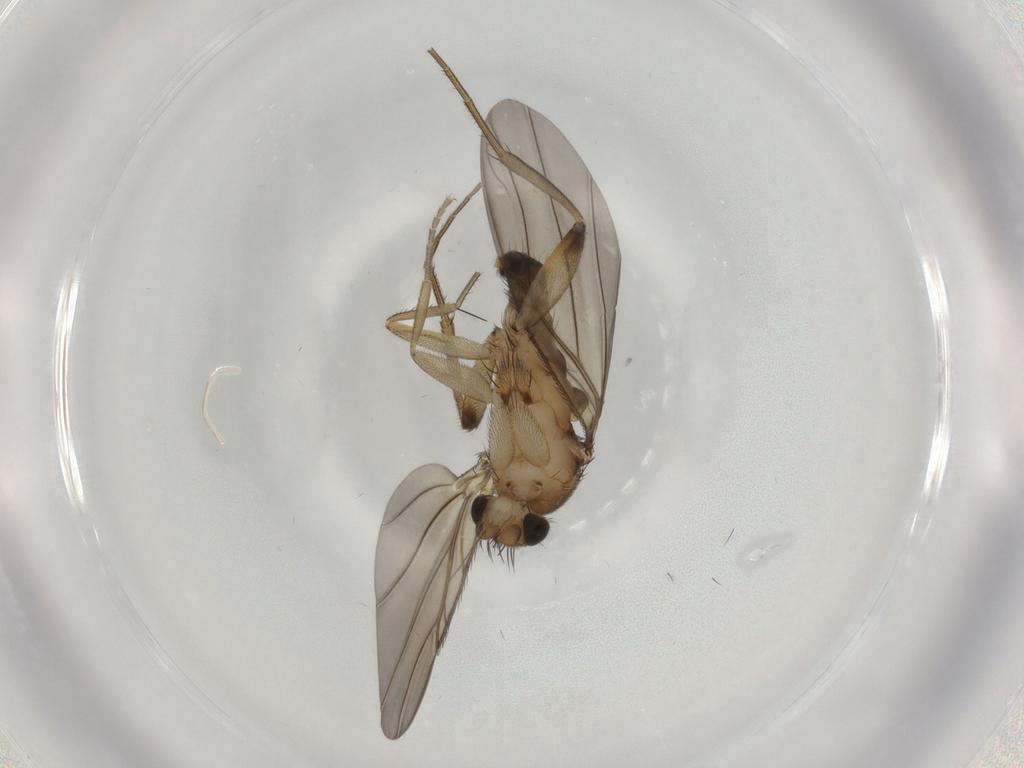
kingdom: Animalia
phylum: Arthropoda
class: Insecta
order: Diptera
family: Phoridae
